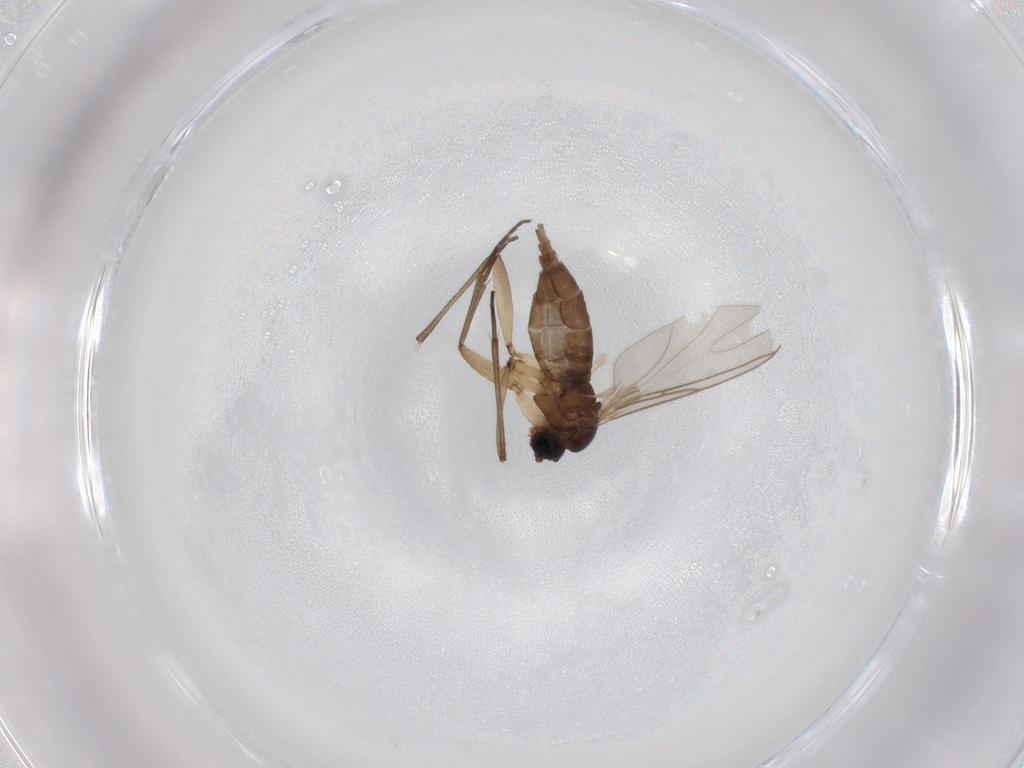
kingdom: Animalia
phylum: Arthropoda
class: Insecta
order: Diptera
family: Sciaridae
